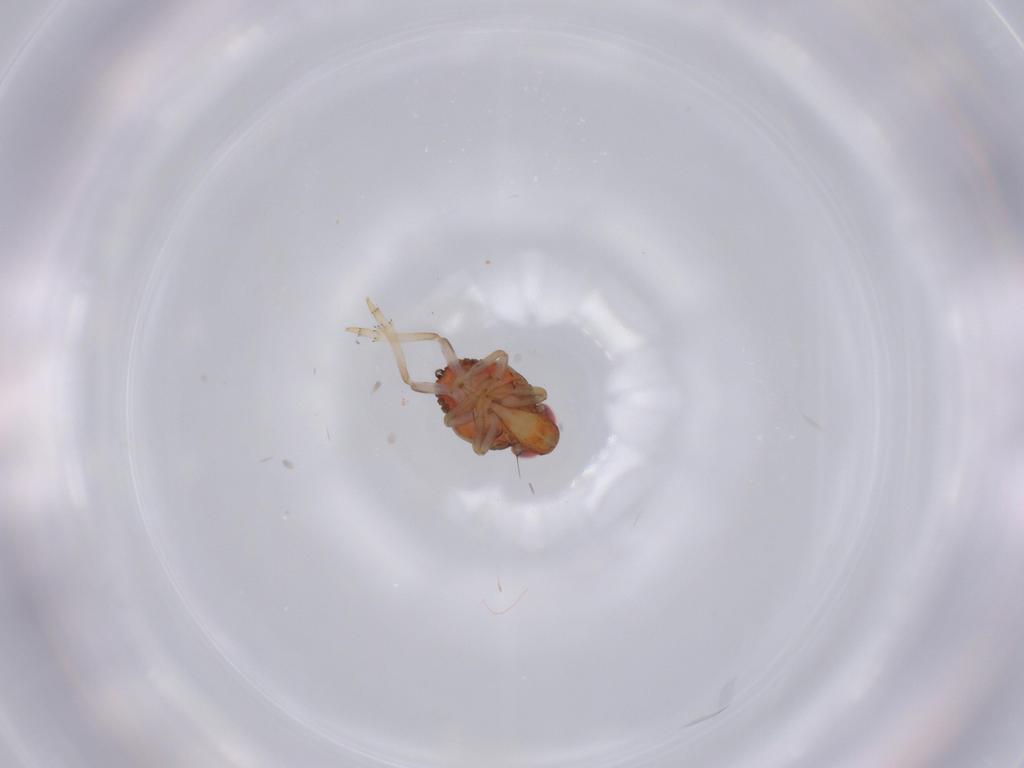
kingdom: Animalia
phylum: Arthropoda
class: Insecta
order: Hemiptera
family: Issidae
